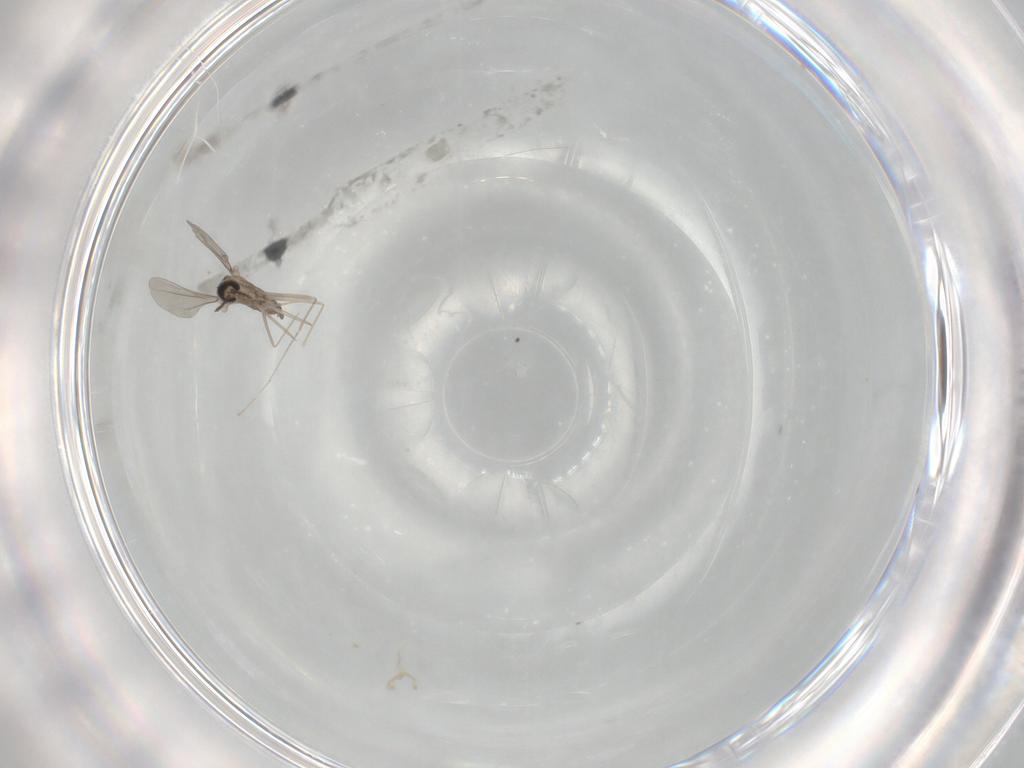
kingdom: Animalia
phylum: Arthropoda
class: Insecta
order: Diptera
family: Cecidomyiidae
